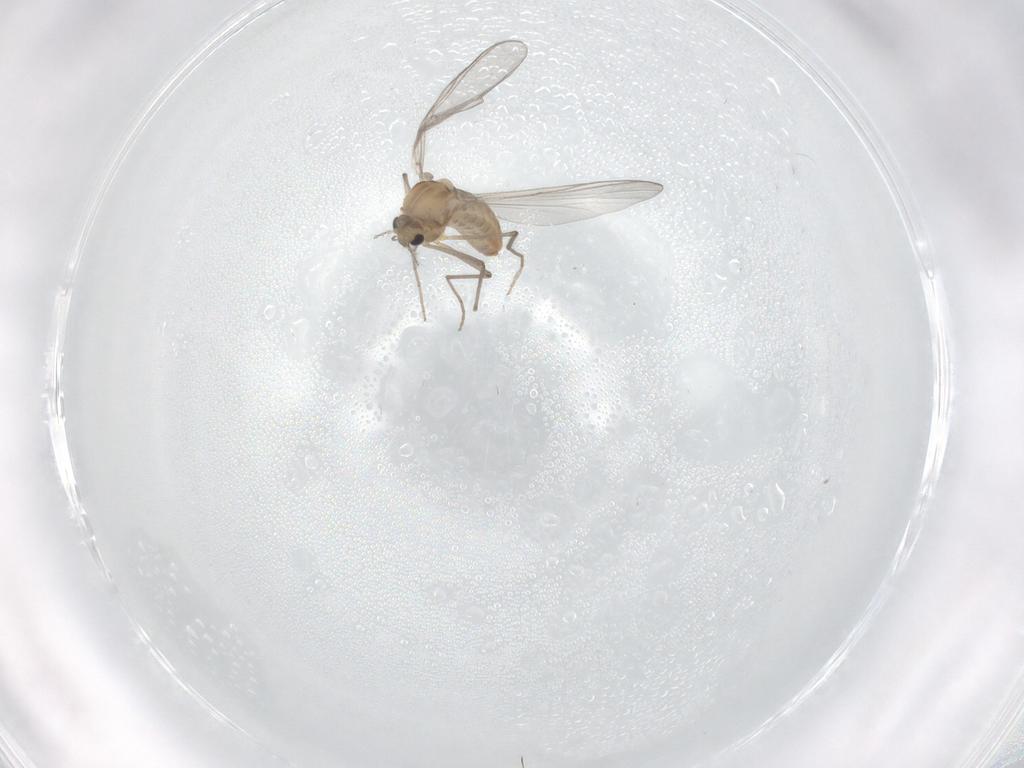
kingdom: Animalia
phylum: Arthropoda
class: Insecta
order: Diptera
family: Chironomidae
